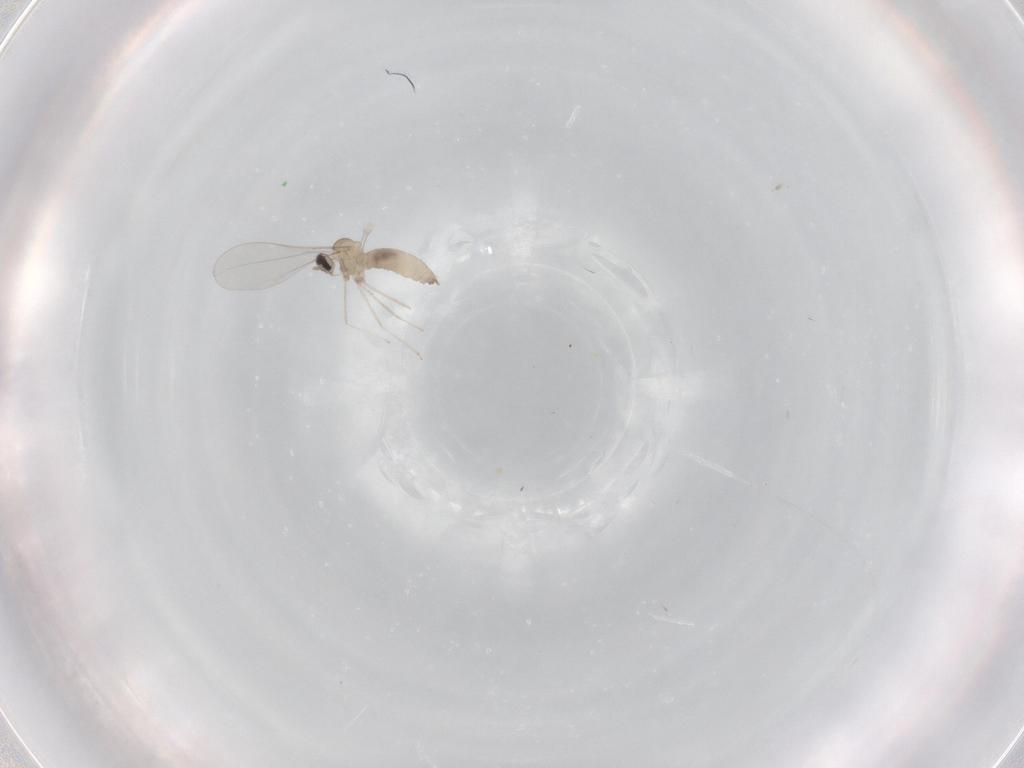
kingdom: Animalia
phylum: Arthropoda
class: Insecta
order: Diptera
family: Cecidomyiidae
